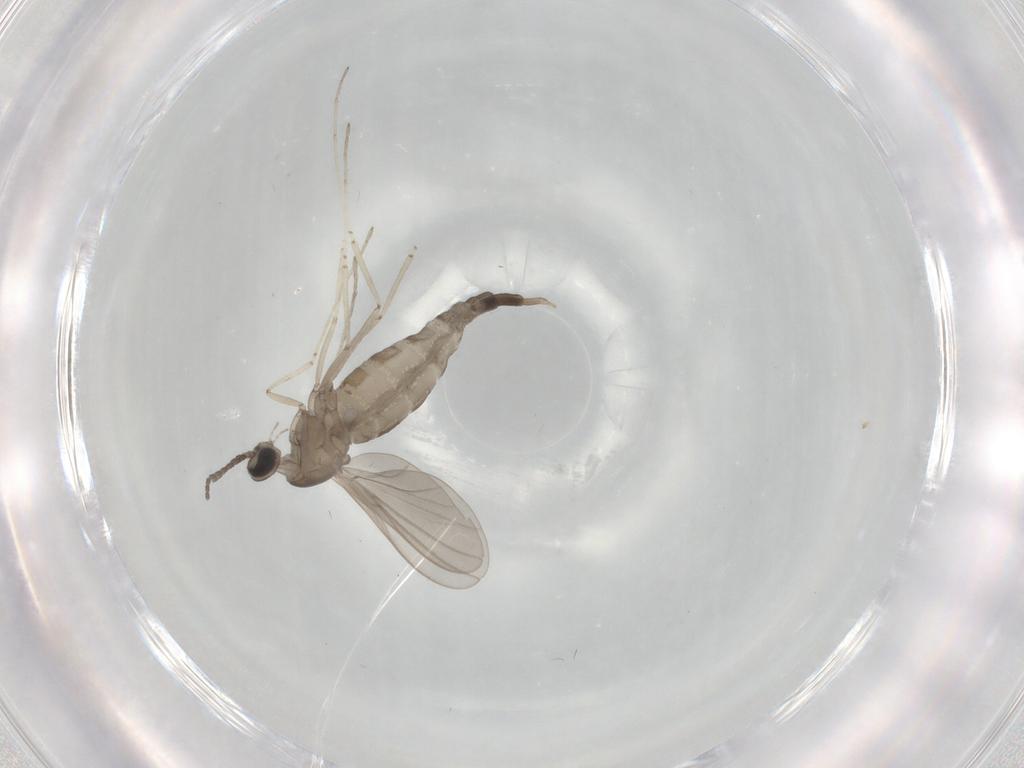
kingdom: Animalia
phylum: Arthropoda
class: Insecta
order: Diptera
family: Cecidomyiidae
